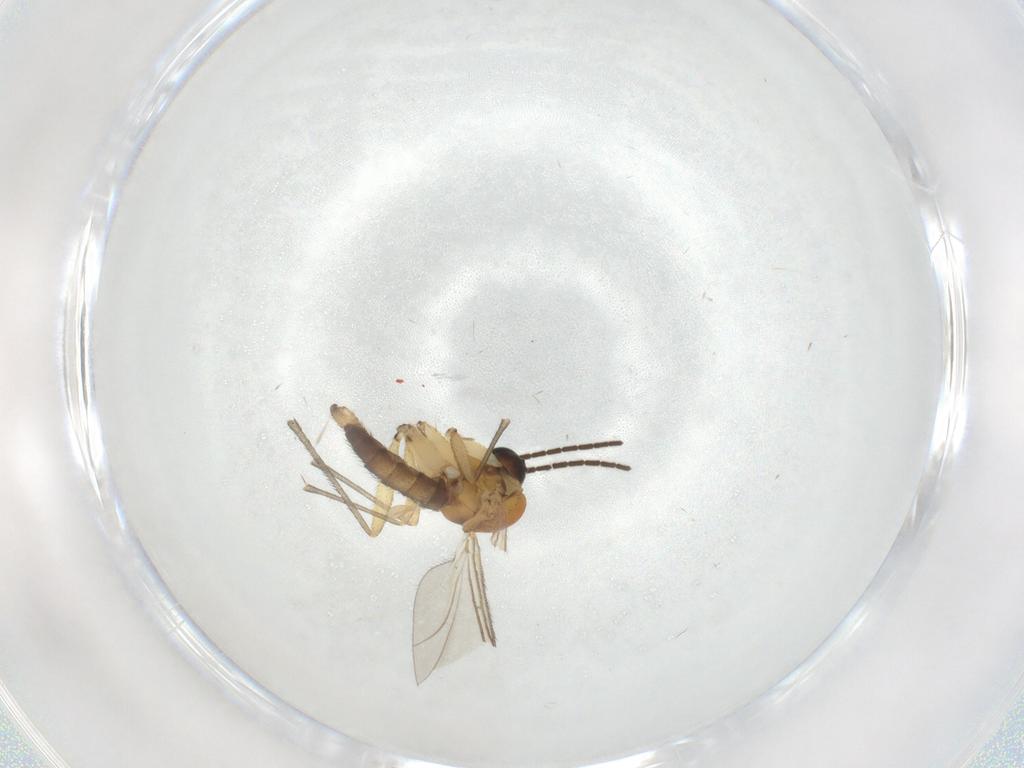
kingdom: Animalia
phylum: Arthropoda
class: Insecta
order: Diptera
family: Sciaridae
